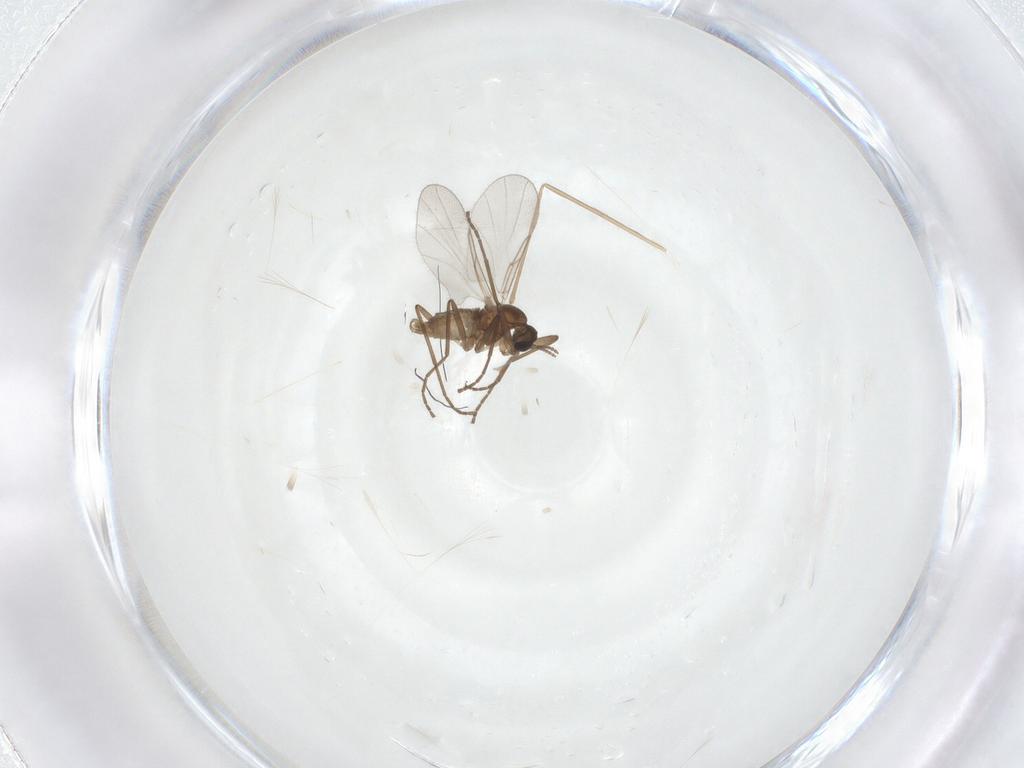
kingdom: Animalia
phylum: Arthropoda
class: Insecta
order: Diptera
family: Cecidomyiidae
